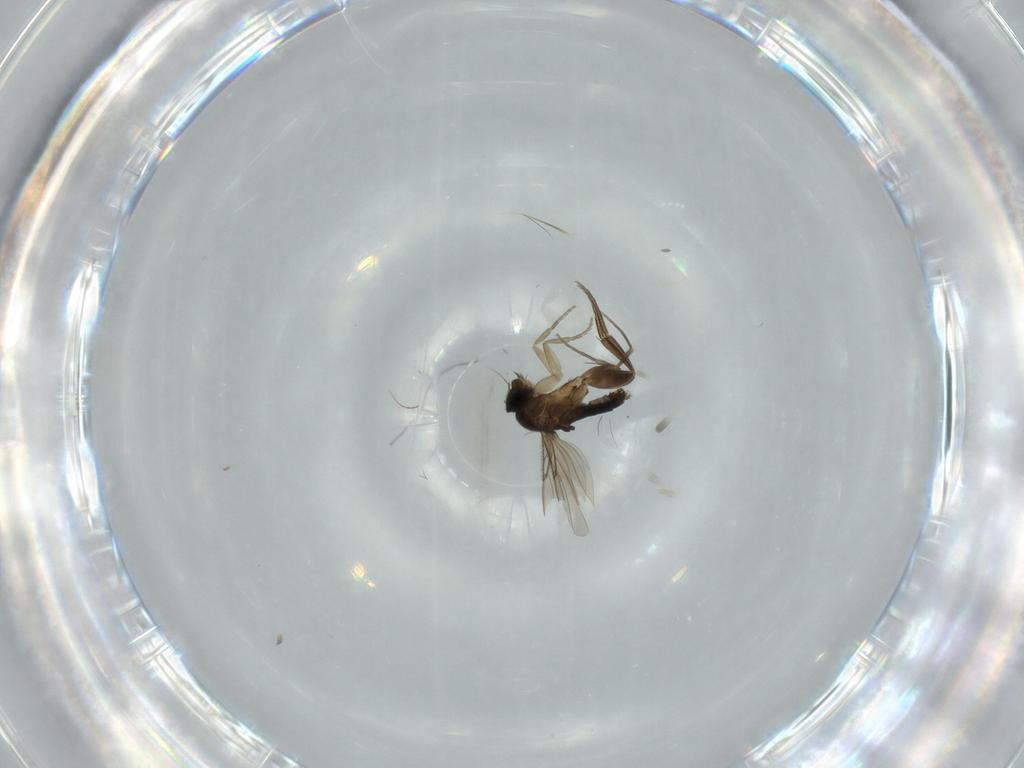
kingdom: Animalia
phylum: Arthropoda
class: Insecta
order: Diptera
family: Phoridae
